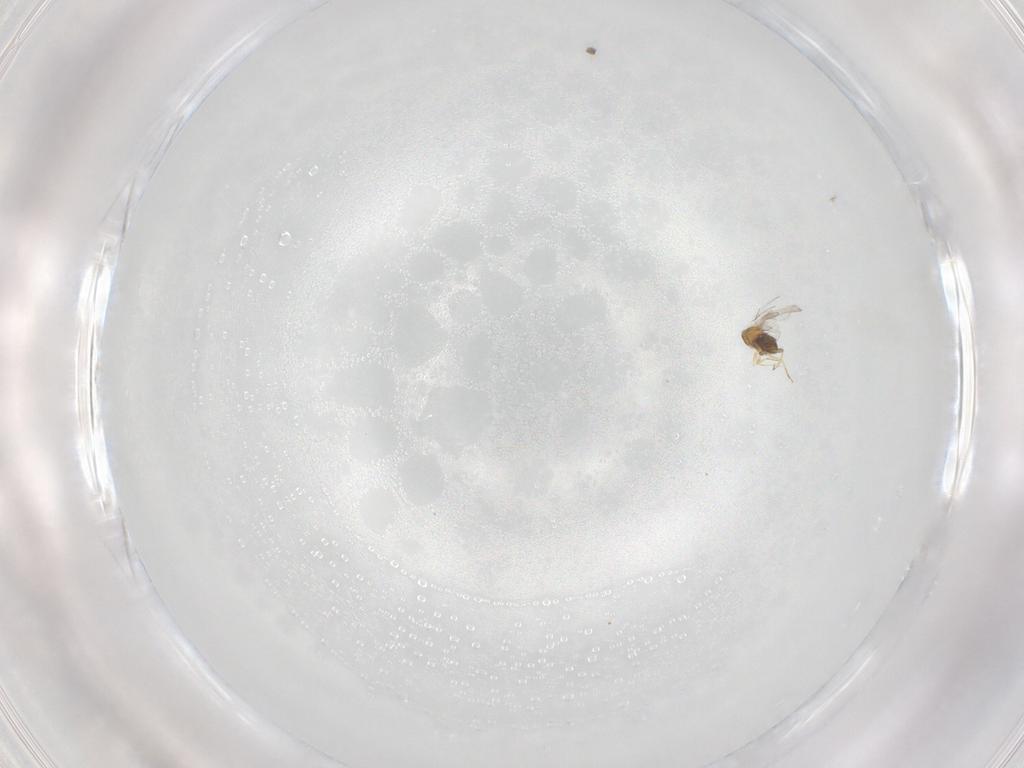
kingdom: Animalia
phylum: Arthropoda
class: Insecta
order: Hymenoptera
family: Trichogrammatidae
